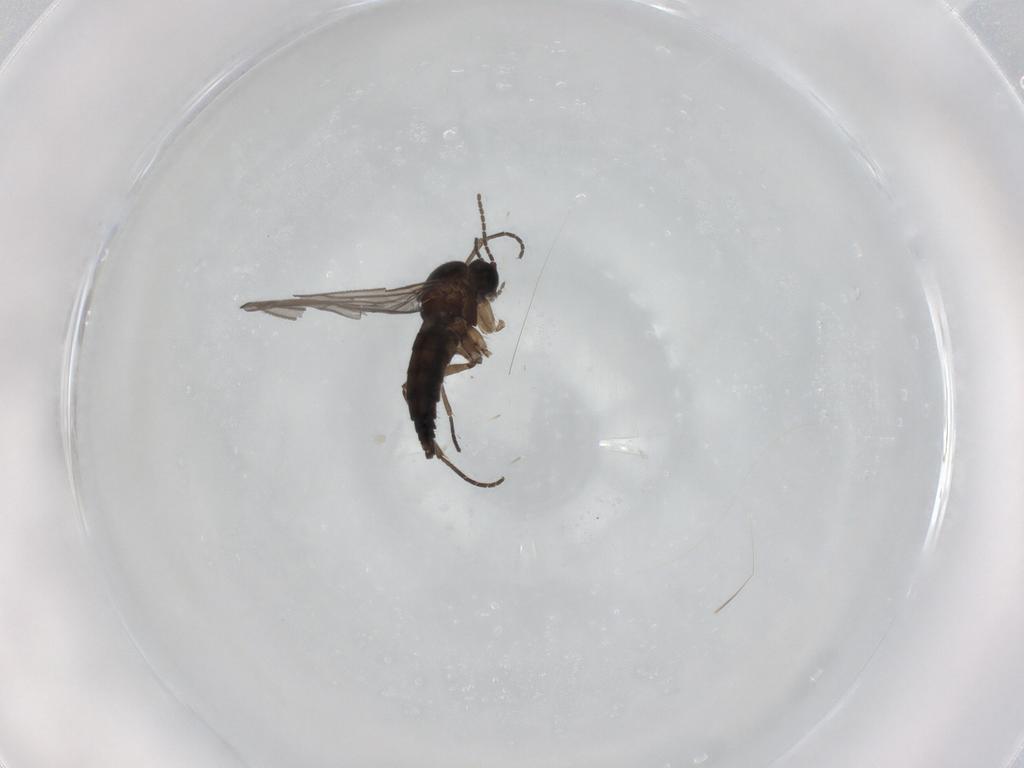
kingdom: Animalia
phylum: Arthropoda
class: Insecta
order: Diptera
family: Sciaridae
